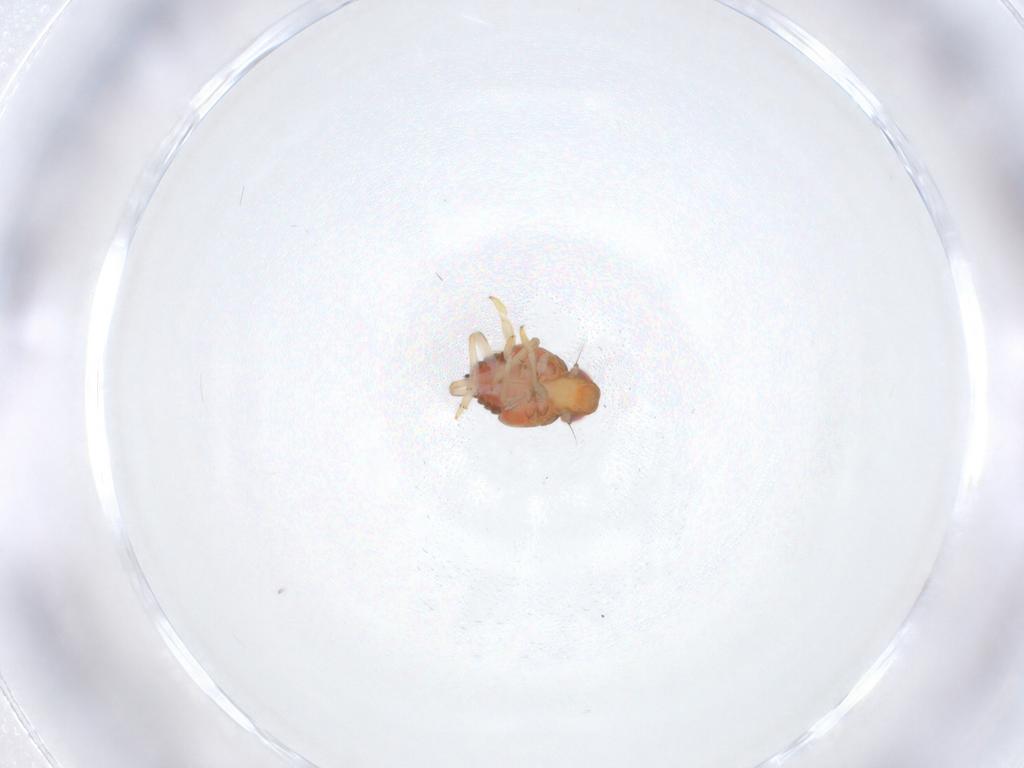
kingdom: Animalia
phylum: Arthropoda
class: Insecta
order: Hemiptera
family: Issidae
